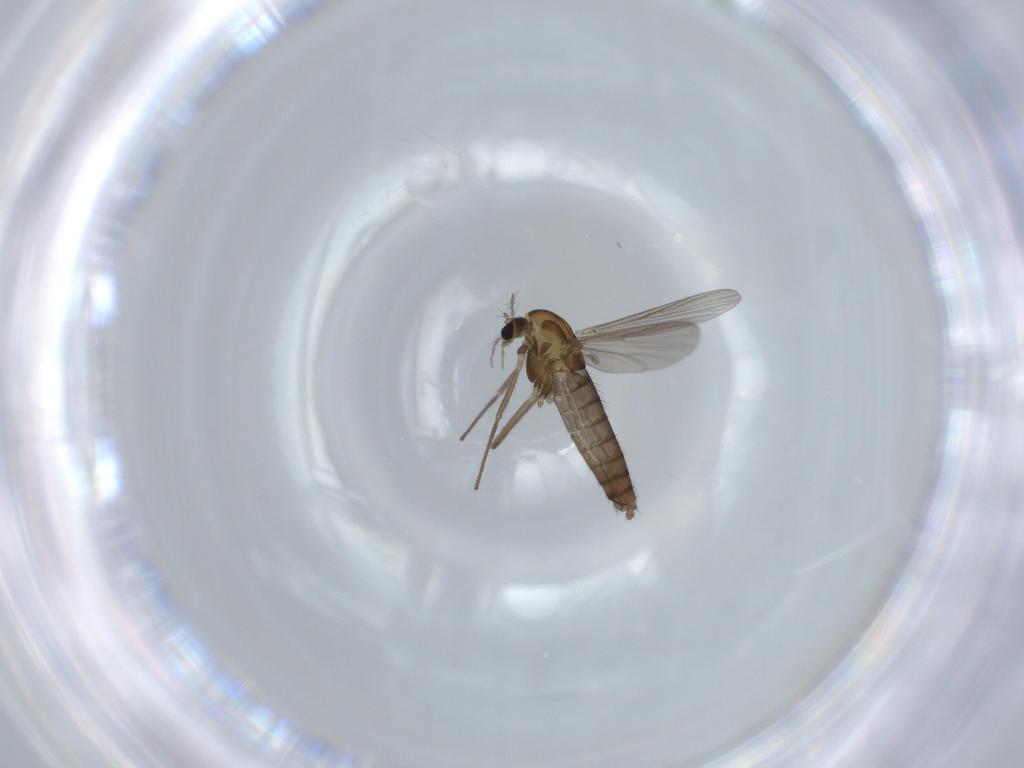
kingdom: Animalia
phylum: Arthropoda
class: Insecta
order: Diptera
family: Chironomidae
